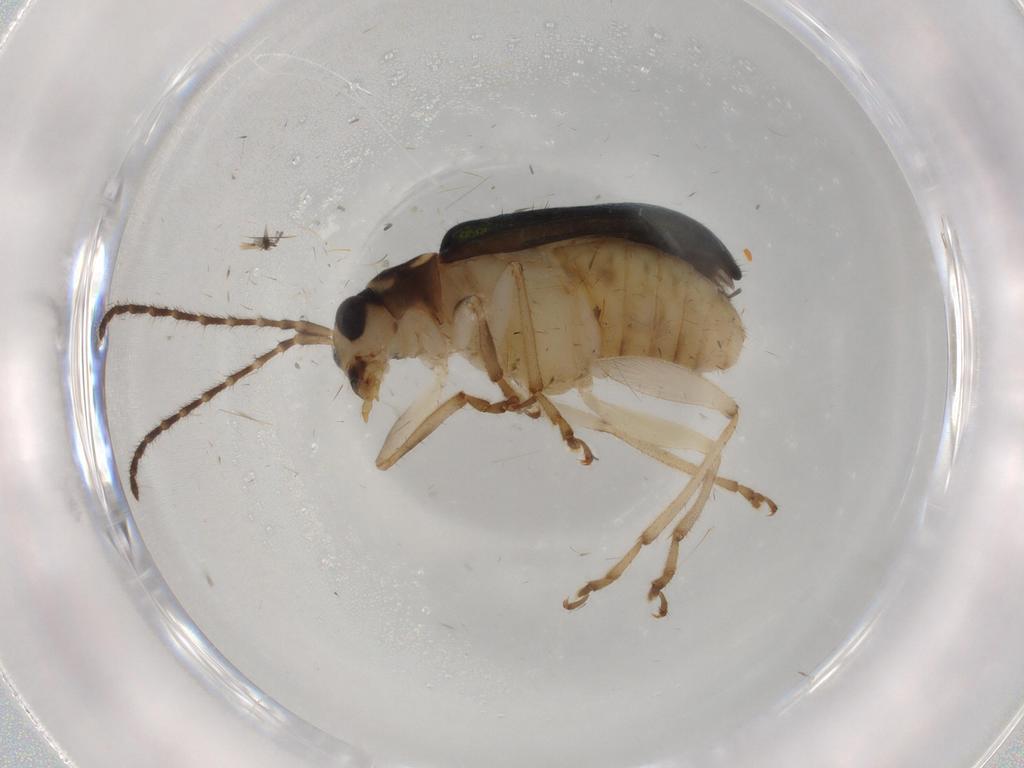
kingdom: Animalia
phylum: Arthropoda
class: Insecta
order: Coleoptera
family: Chrysomelidae
